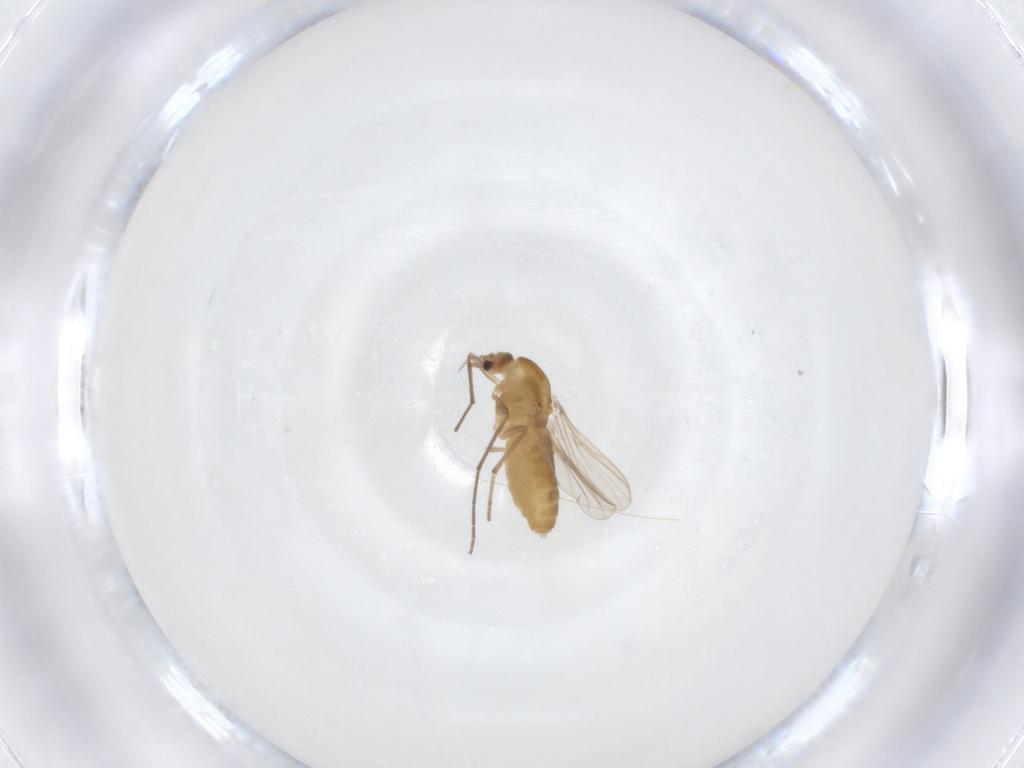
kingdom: Animalia
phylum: Arthropoda
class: Insecta
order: Diptera
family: Chironomidae
